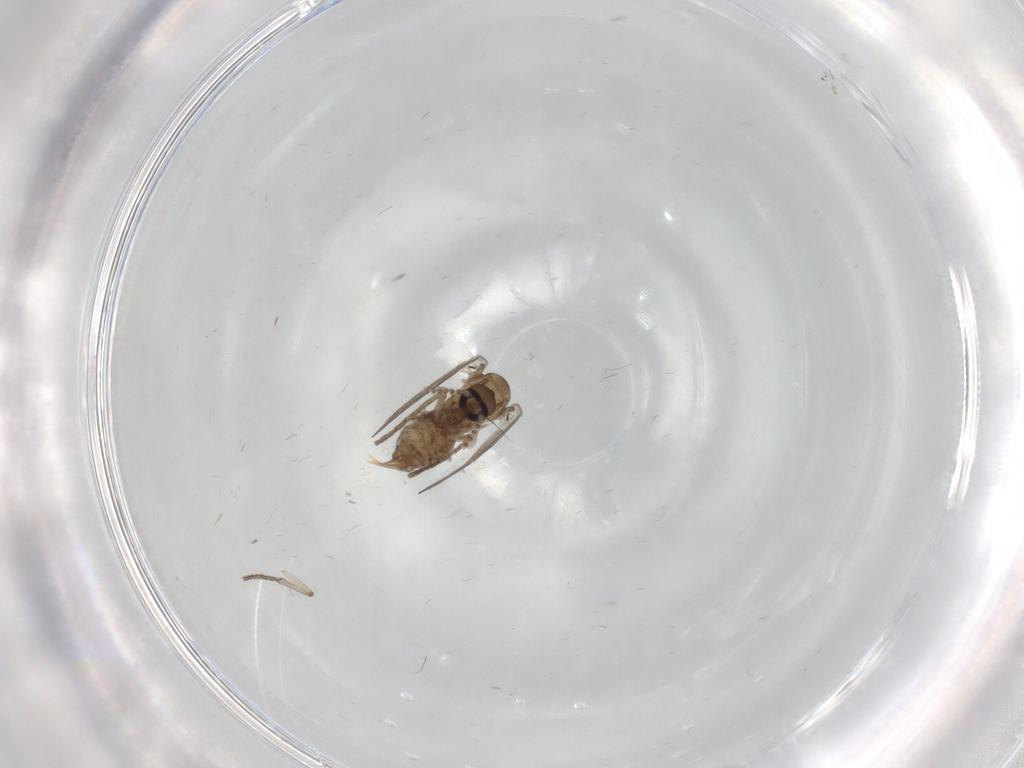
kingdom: Animalia
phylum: Arthropoda
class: Insecta
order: Diptera
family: Psychodidae
